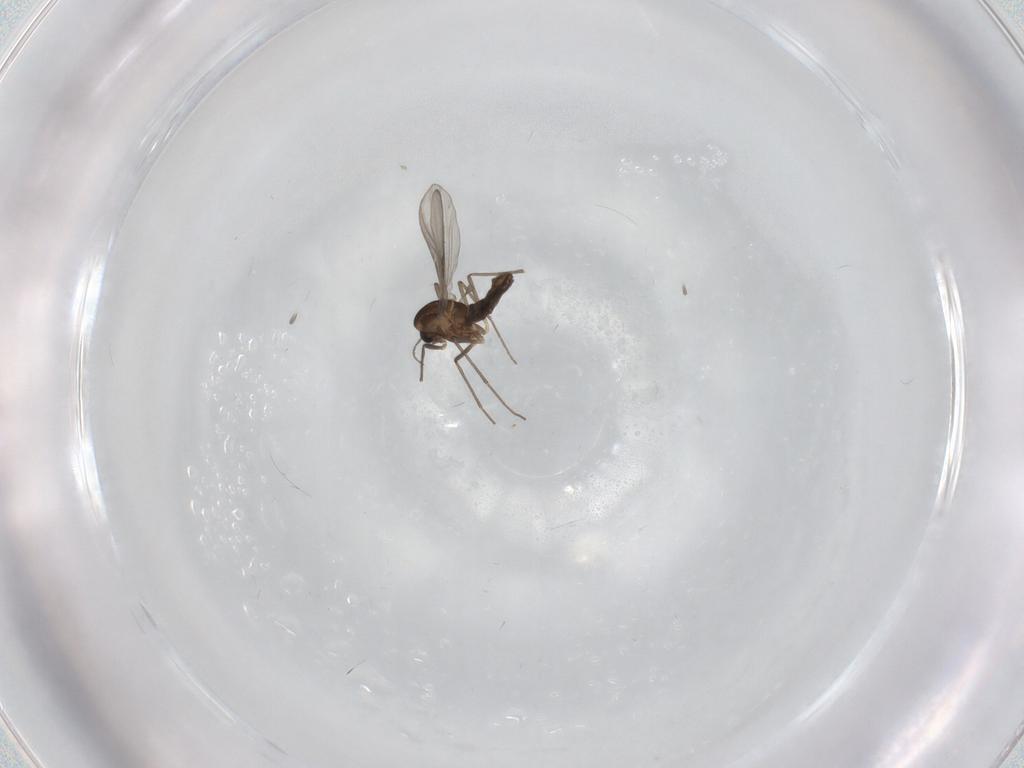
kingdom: Animalia
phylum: Arthropoda
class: Insecta
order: Diptera
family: Chironomidae
